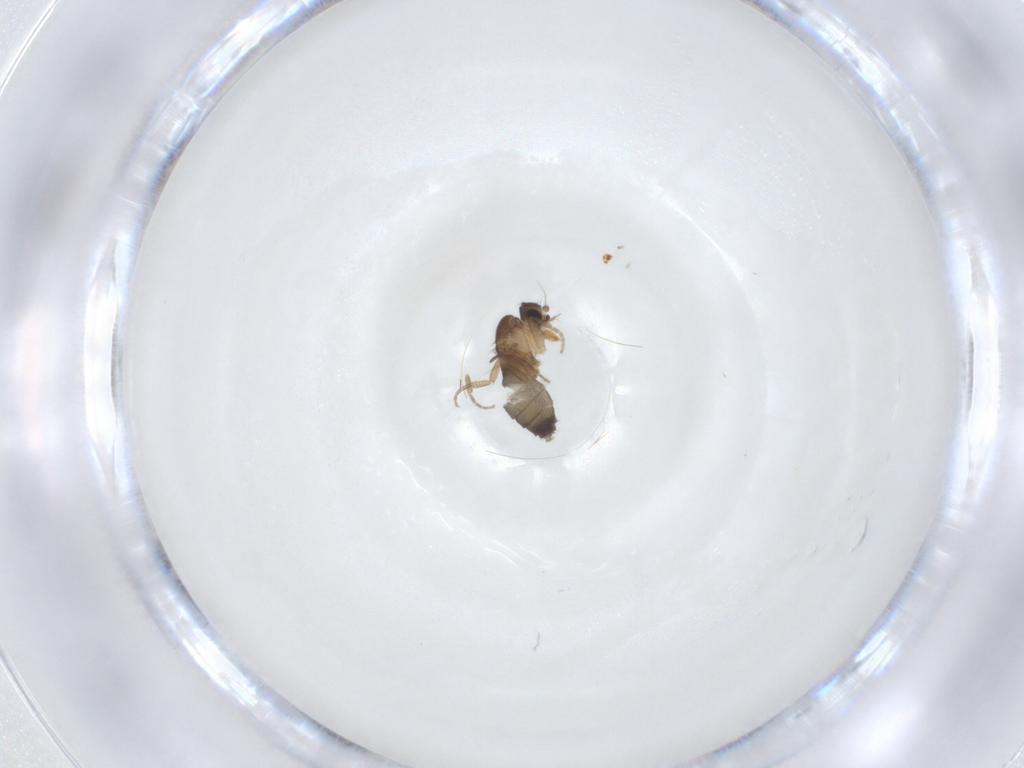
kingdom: Animalia
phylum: Arthropoda
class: Insecta
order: Diptera
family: Phoridae
